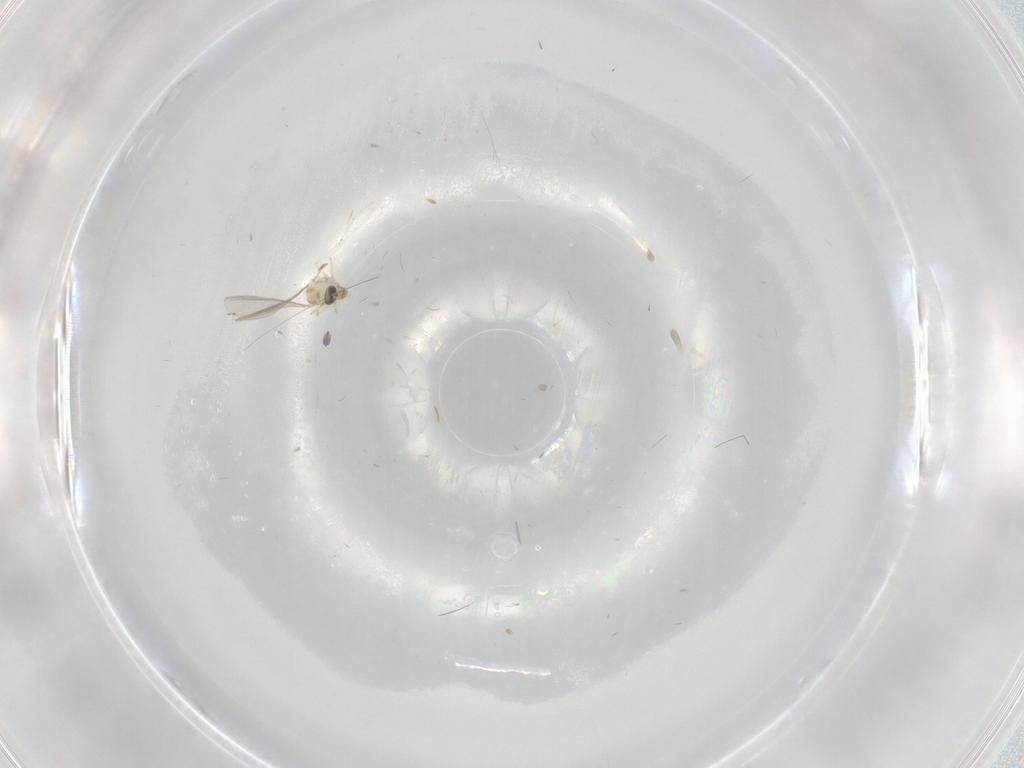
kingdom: Animalia
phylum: Arthropoda
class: Insecta
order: Diptera
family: Cecidomyiidae
